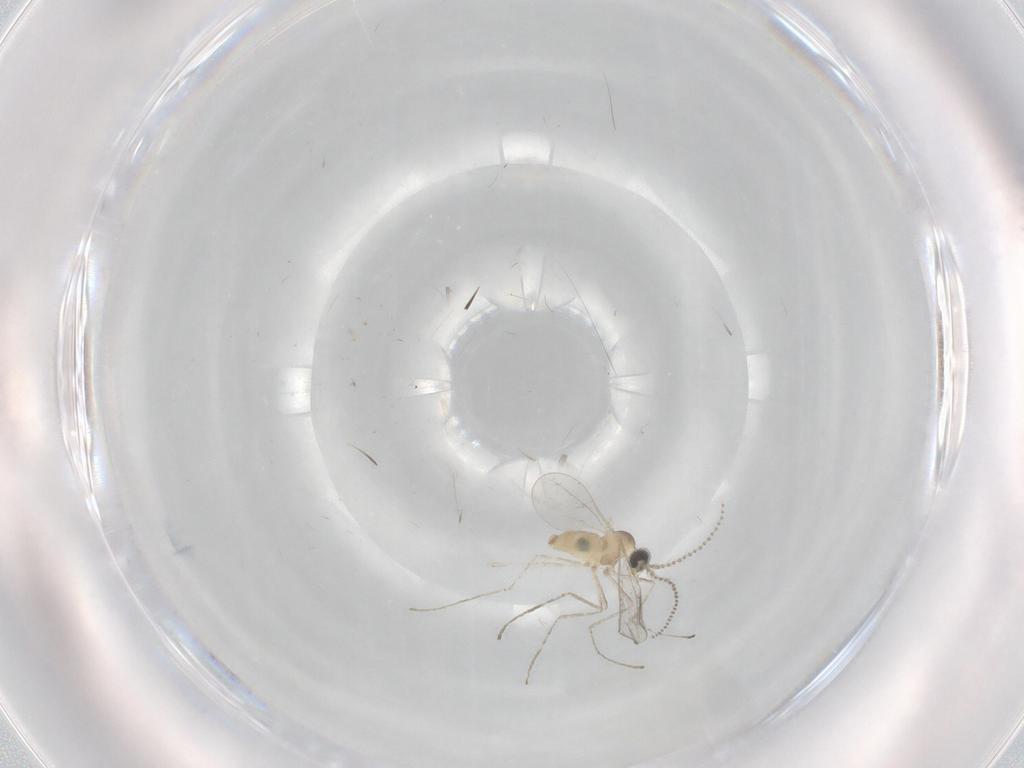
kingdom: Animalia
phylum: Arthropoda
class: Insecta
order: Diptera
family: Cecidomyiidae
